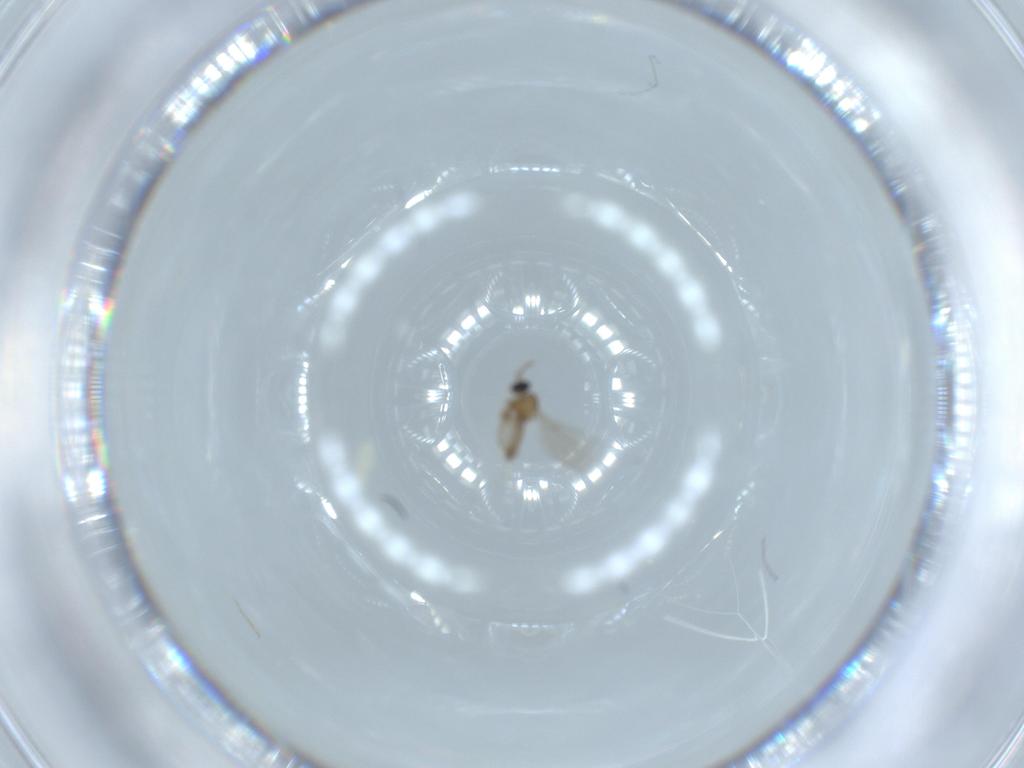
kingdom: Animalia
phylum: Arthropoda
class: Insecta
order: Diptera
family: Cecidomyiidae
